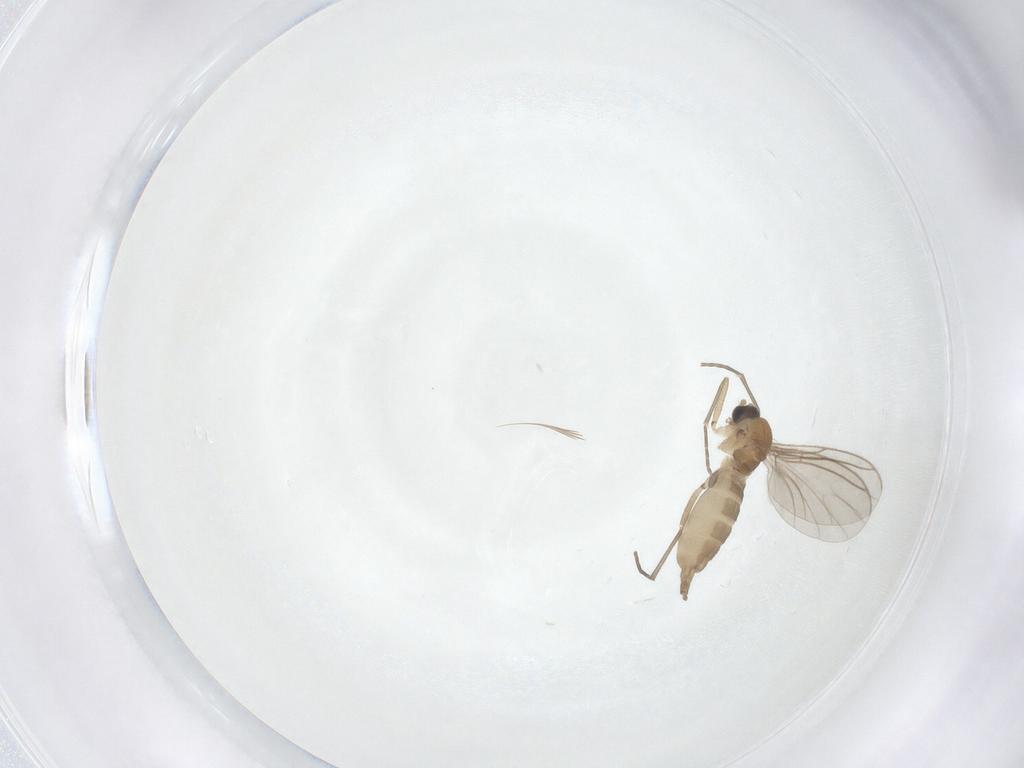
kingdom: Animalia
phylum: Arthropoda
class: Insecta
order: Diptera
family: Sciaridae
